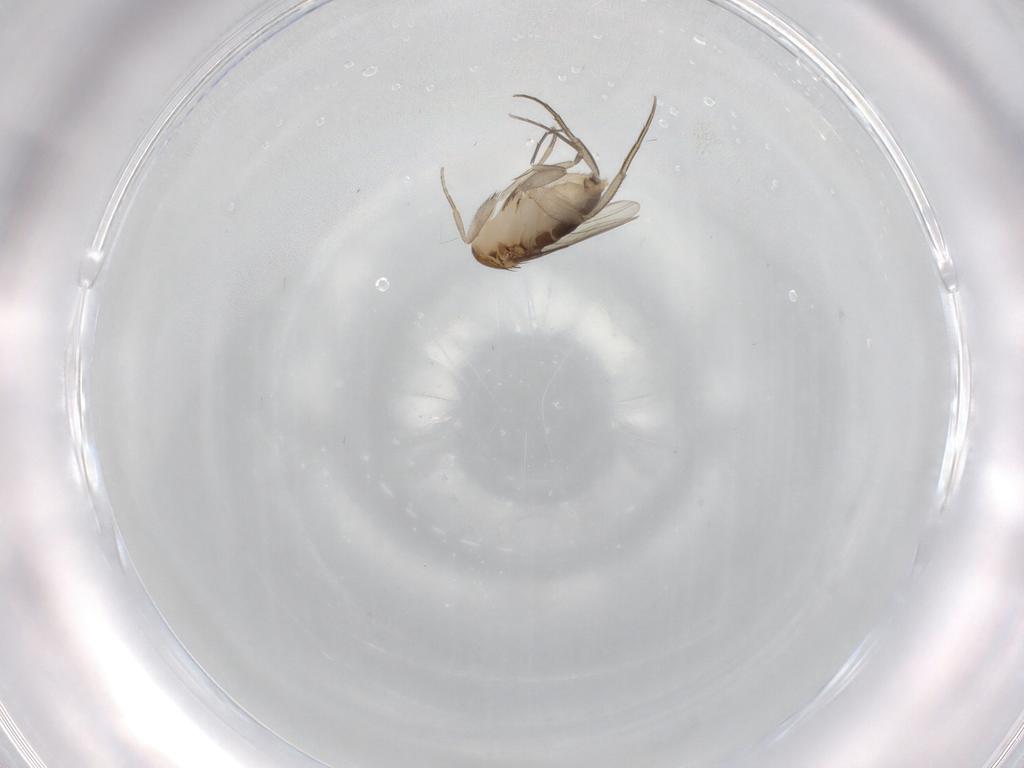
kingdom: Animalia
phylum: Arthropoda
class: Insecta
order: Diptera
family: Phoridae
